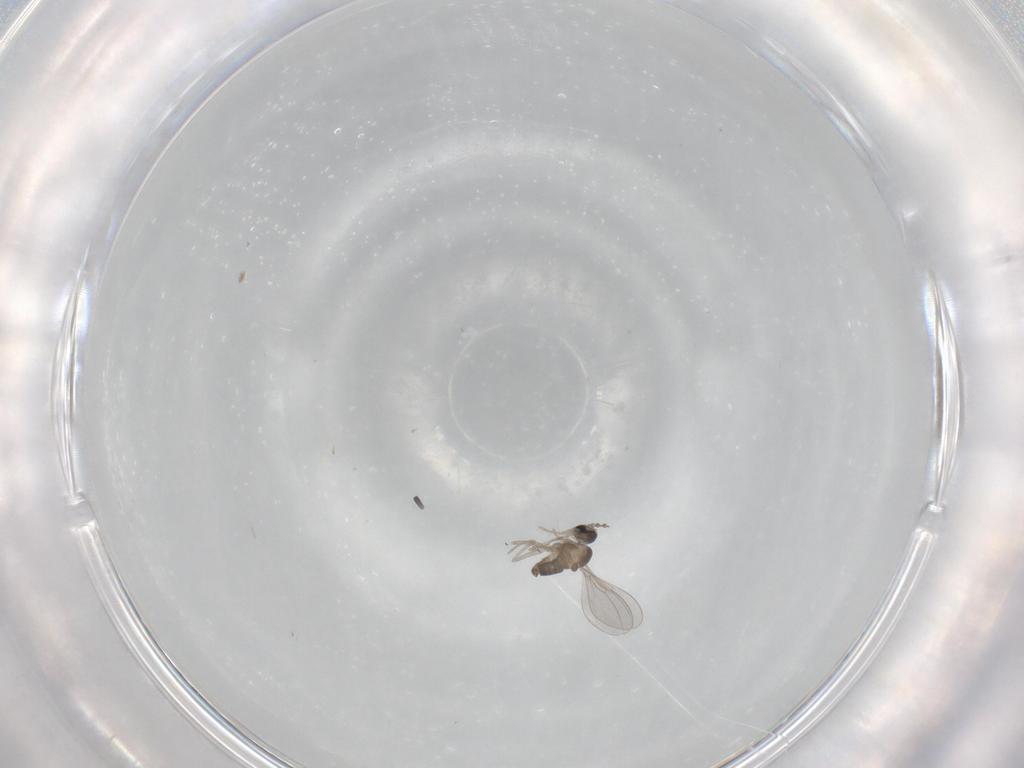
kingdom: Animalia
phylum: Arthropoda
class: Insecta
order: Diptera
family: Cecidomyiidae
